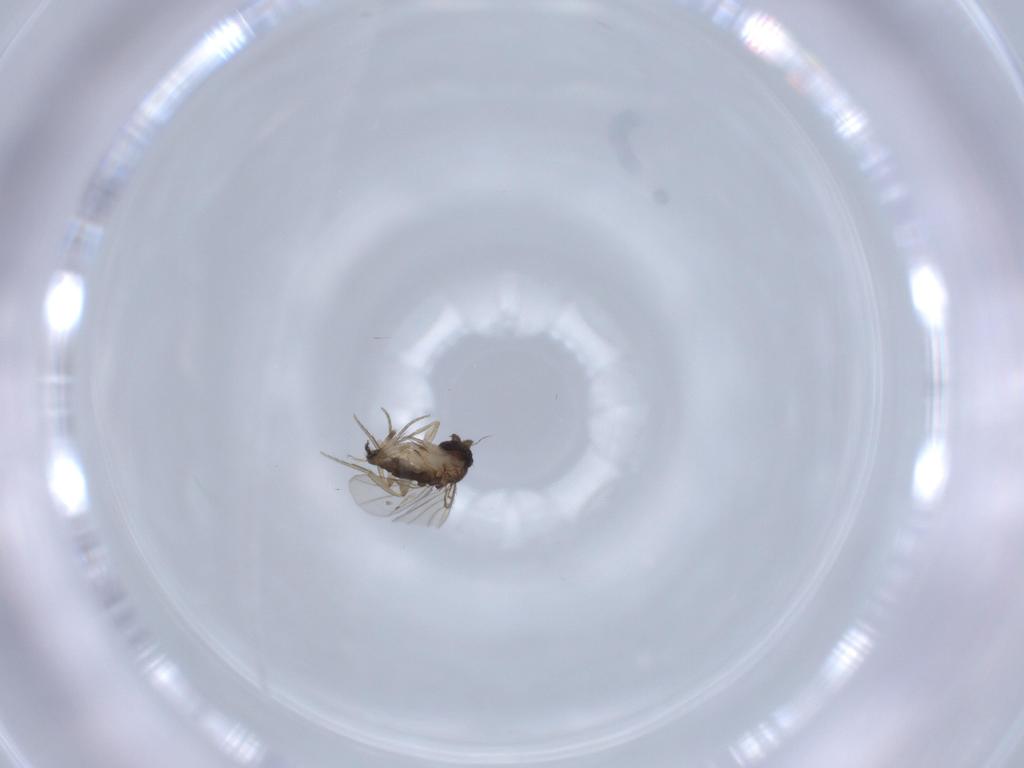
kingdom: Animalia
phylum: Arthropoda
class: Insecta
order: Diptera
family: Phoridae
